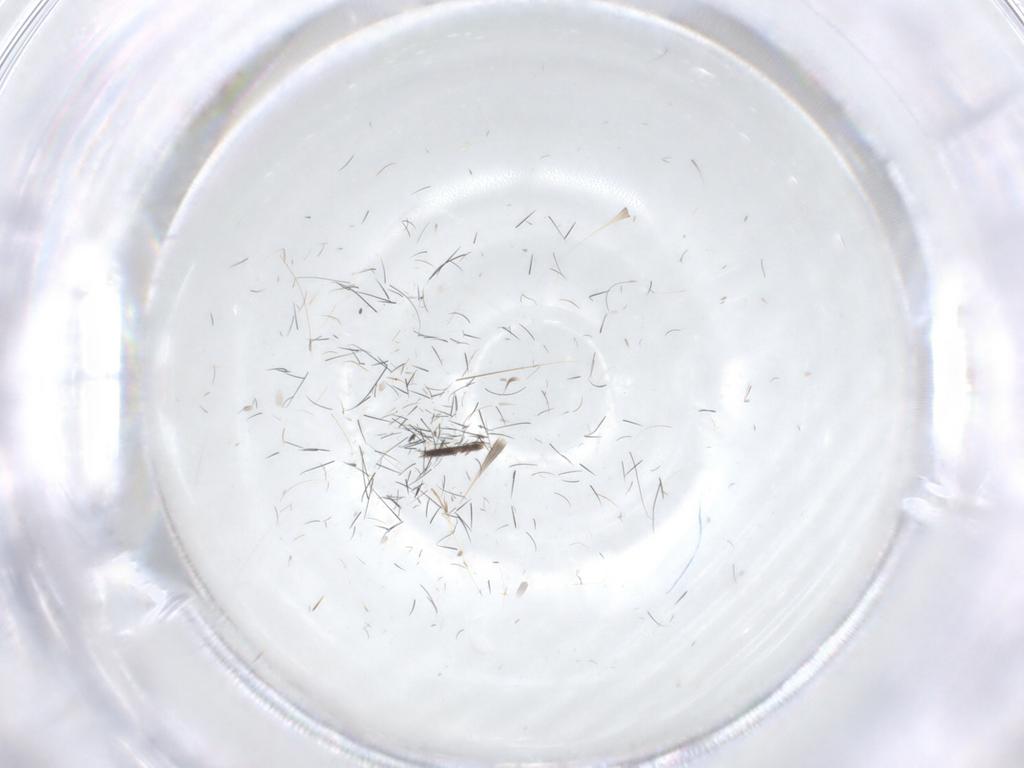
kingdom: Animalia
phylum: Arthropoda
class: Insecta
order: Diptera
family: Sciaridae
